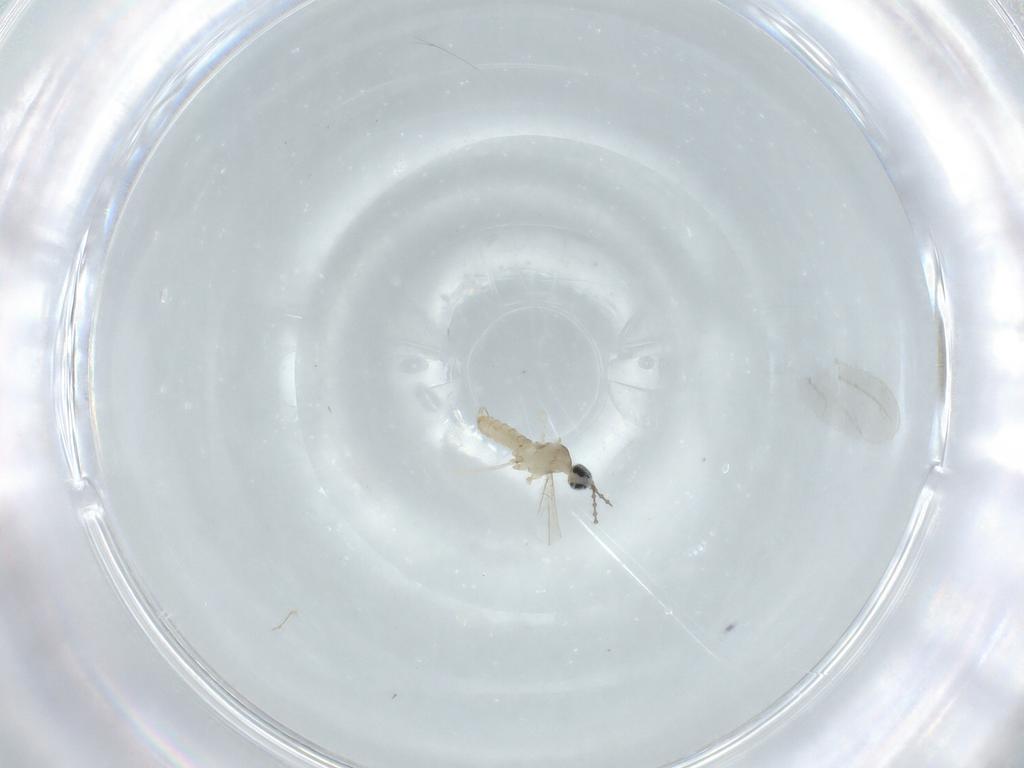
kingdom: Animalia
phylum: Arthropoda
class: Insecta
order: Diptera
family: Cecidomyiidae
